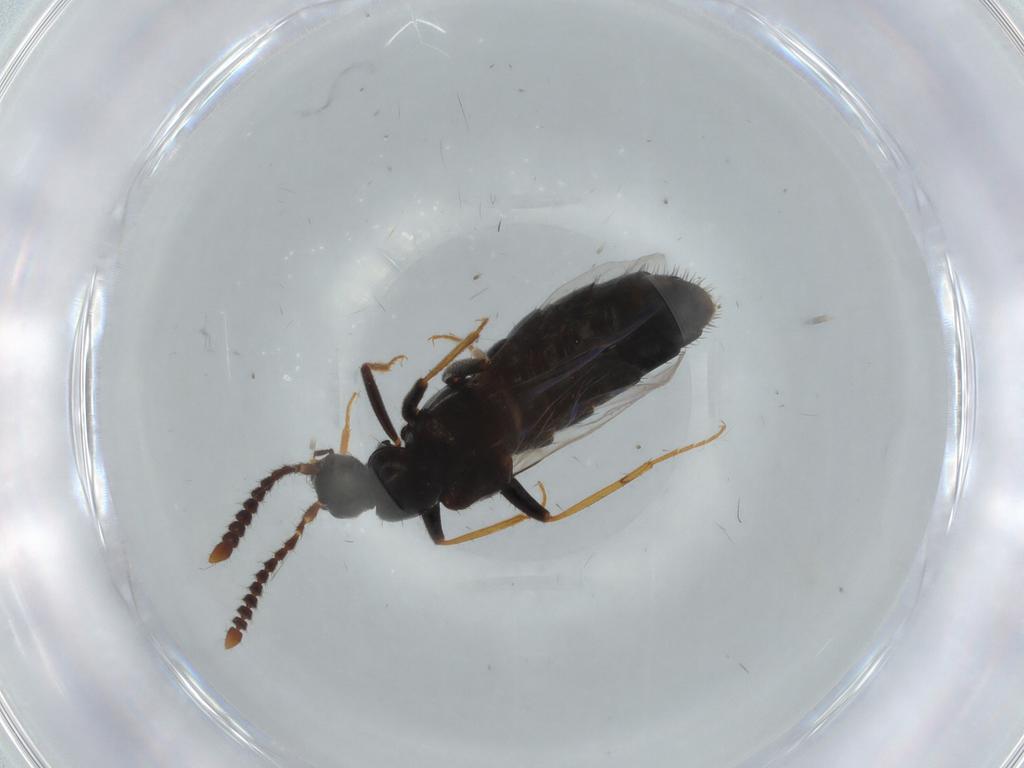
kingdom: Animalia
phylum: Arthropoda
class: Insecta
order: Coleoptera
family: Staphylinidae
